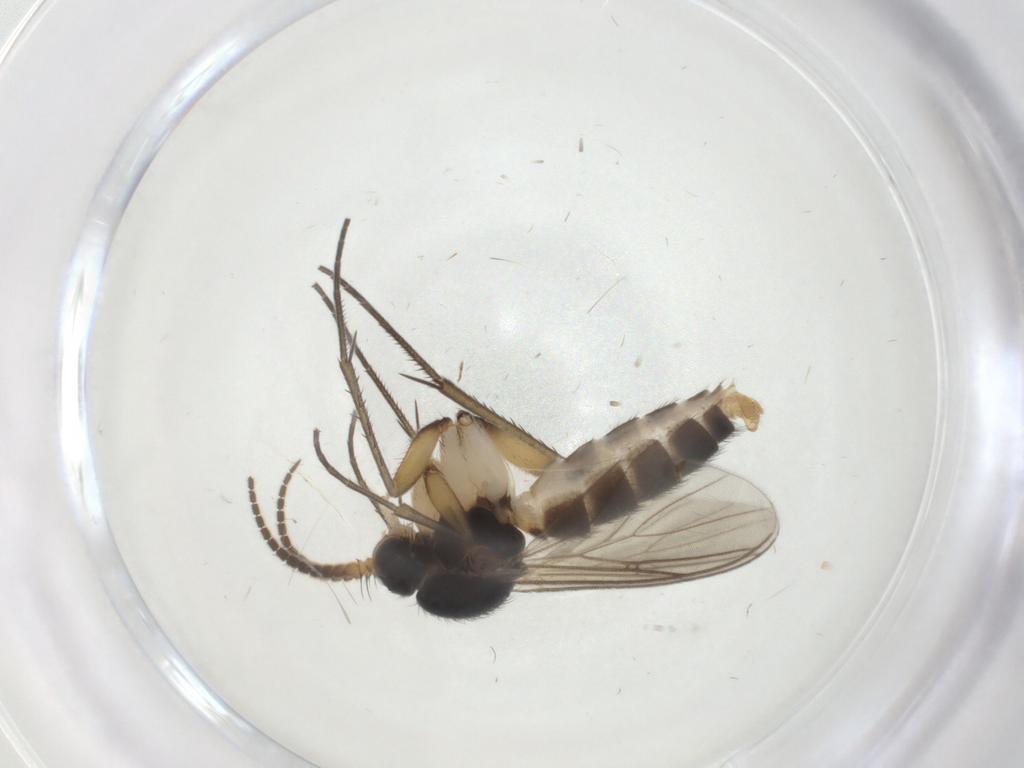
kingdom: Animalia
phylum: Arthropoda
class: Insecta
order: Diptera
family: Mycetophilidae
